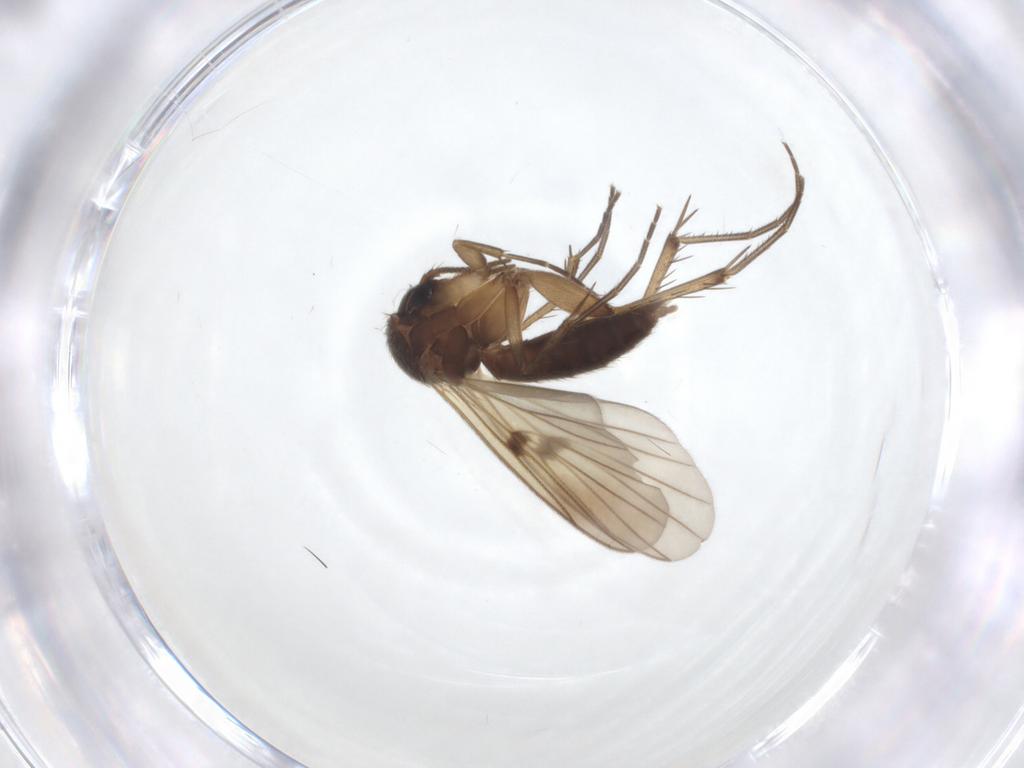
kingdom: Animalia
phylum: Arthropoda
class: Insecta
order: Diptera
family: Mycetophilidae
